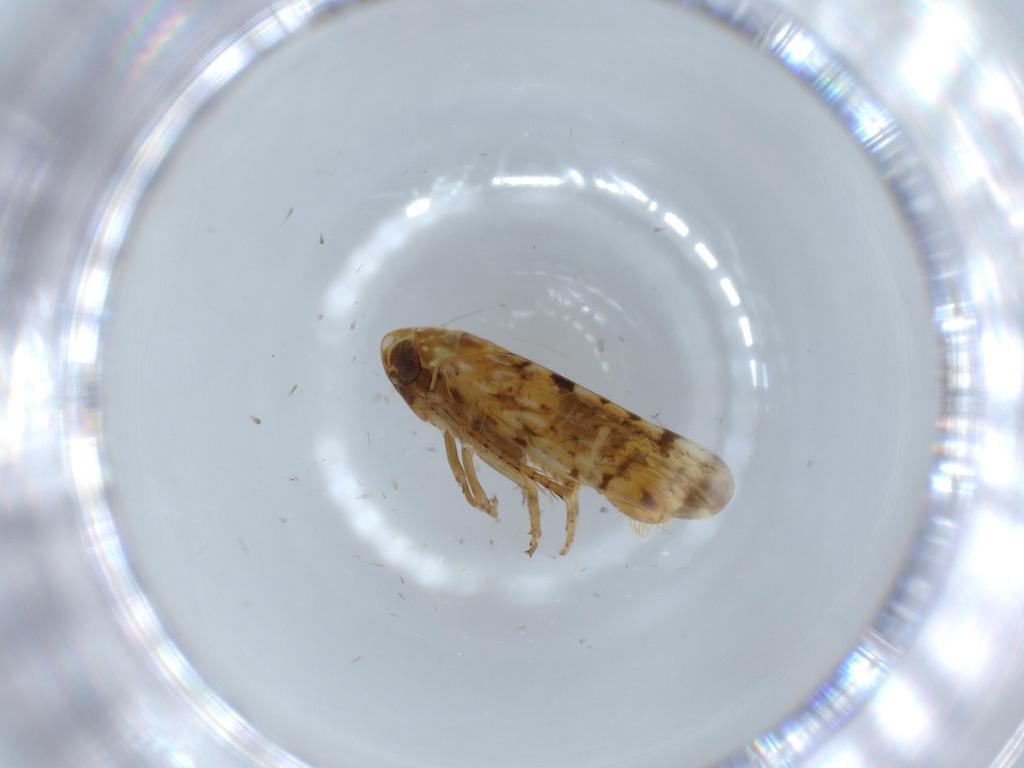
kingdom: Animalia
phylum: Arthropoda
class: Insecta
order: Hemiptera
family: Cicadellidae
